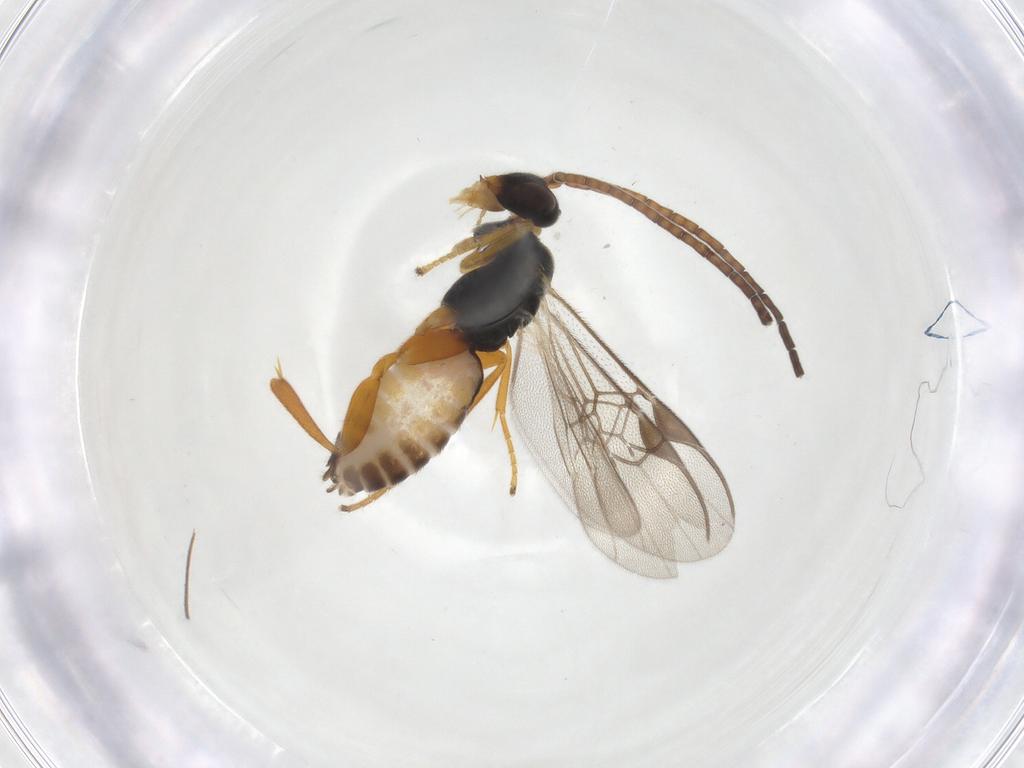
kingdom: Animalia
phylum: Arthropoda
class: Insecta
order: Hymenoptera
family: Braconidae
